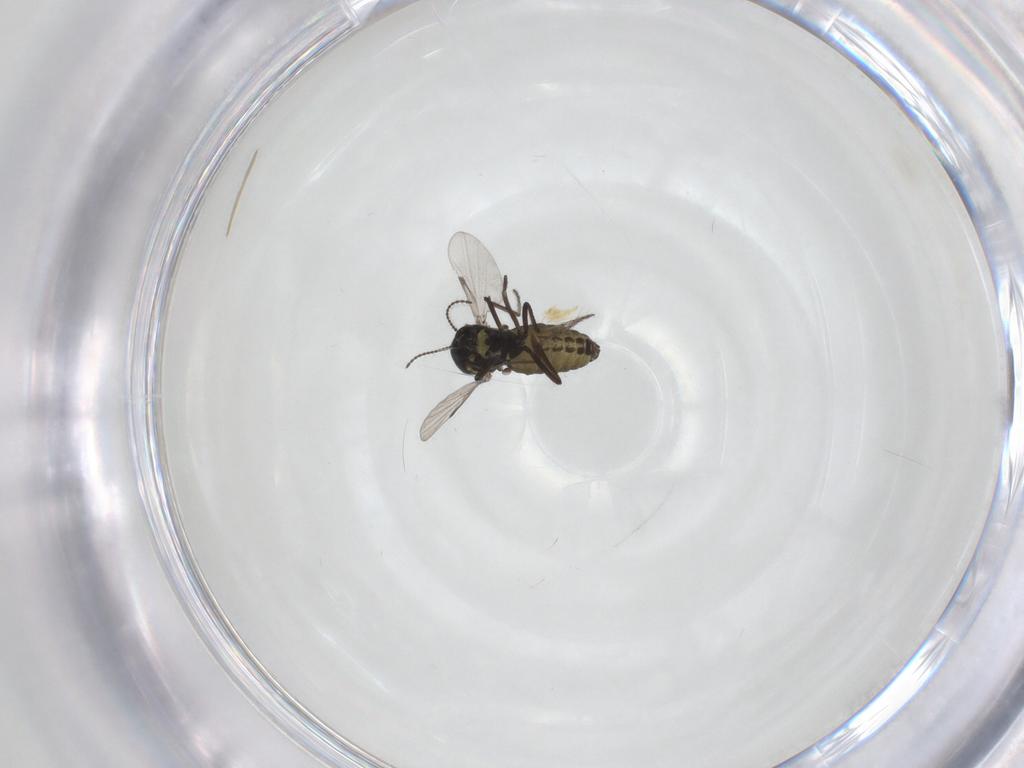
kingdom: Animalia
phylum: Arthropoda
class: Insecta
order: Diptera
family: Ceratopogonidae
